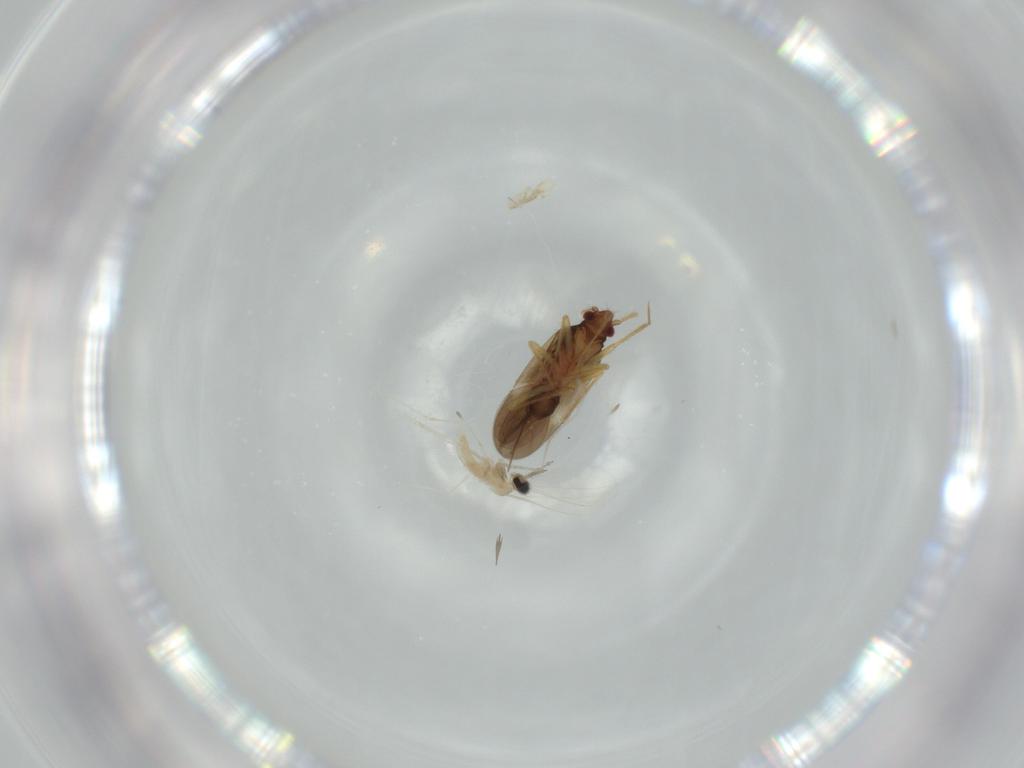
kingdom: Animalia
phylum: Arthropoda
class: Insecta
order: Hemiptera
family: Ceratocombidae
